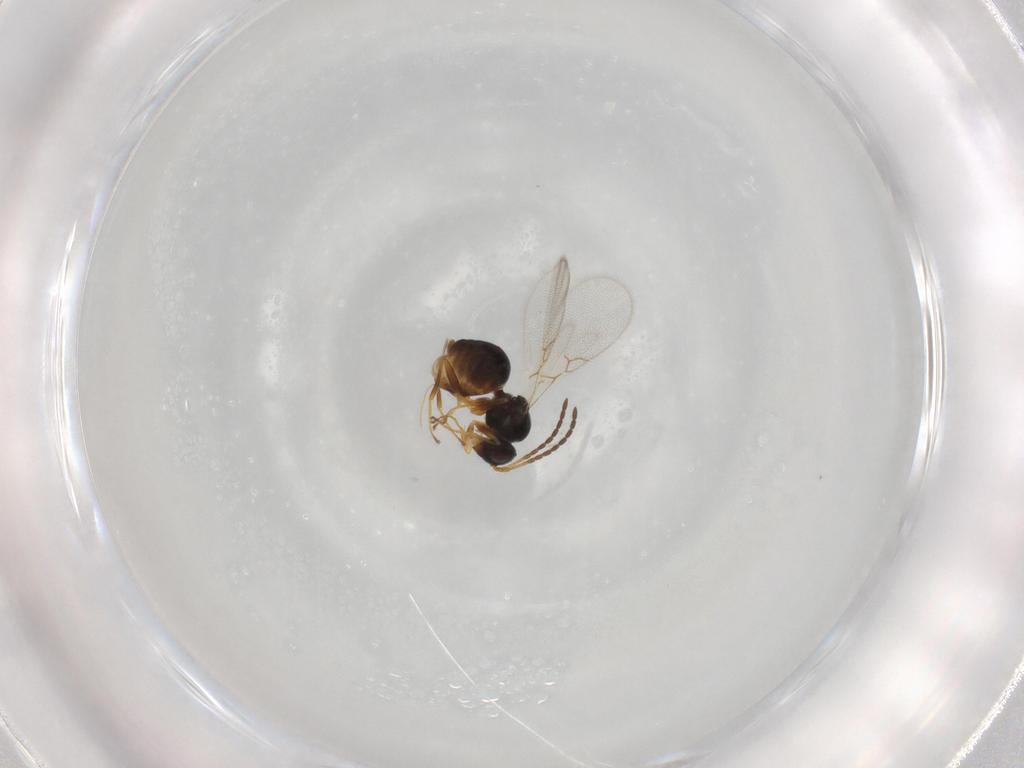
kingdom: Animalia
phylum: Arthropoda
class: Insecta
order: Hymenoptera
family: Figitidae
